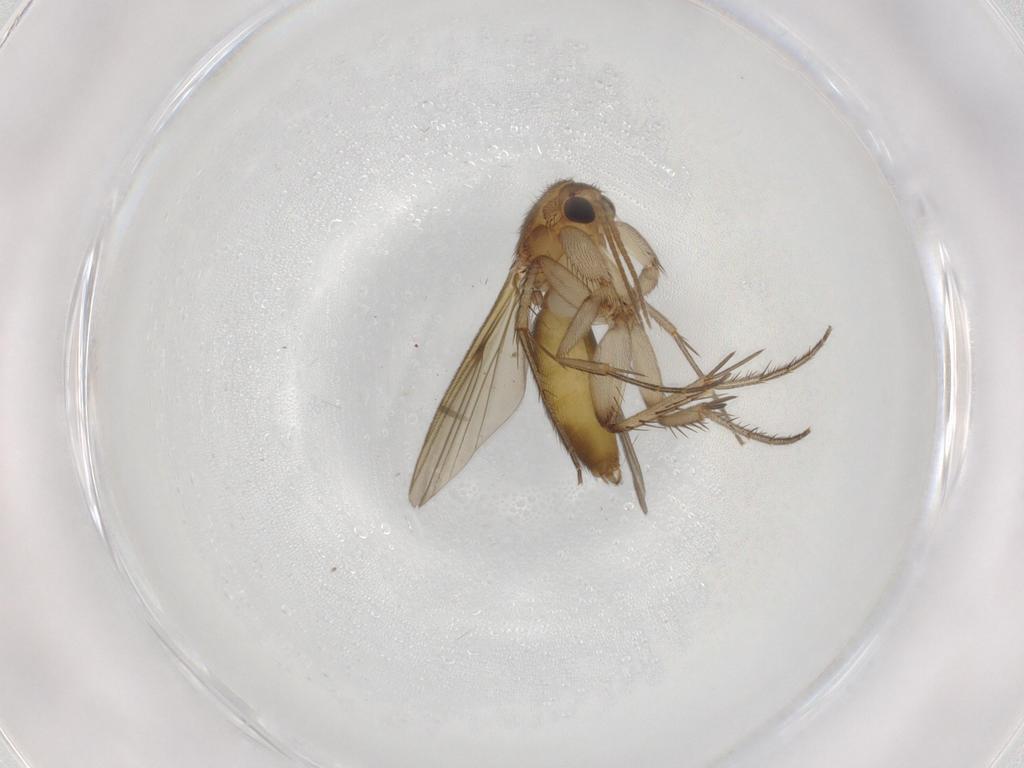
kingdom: Animalia
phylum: Arthropoda
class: Insecta
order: Diptera
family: Mycetophilidae
